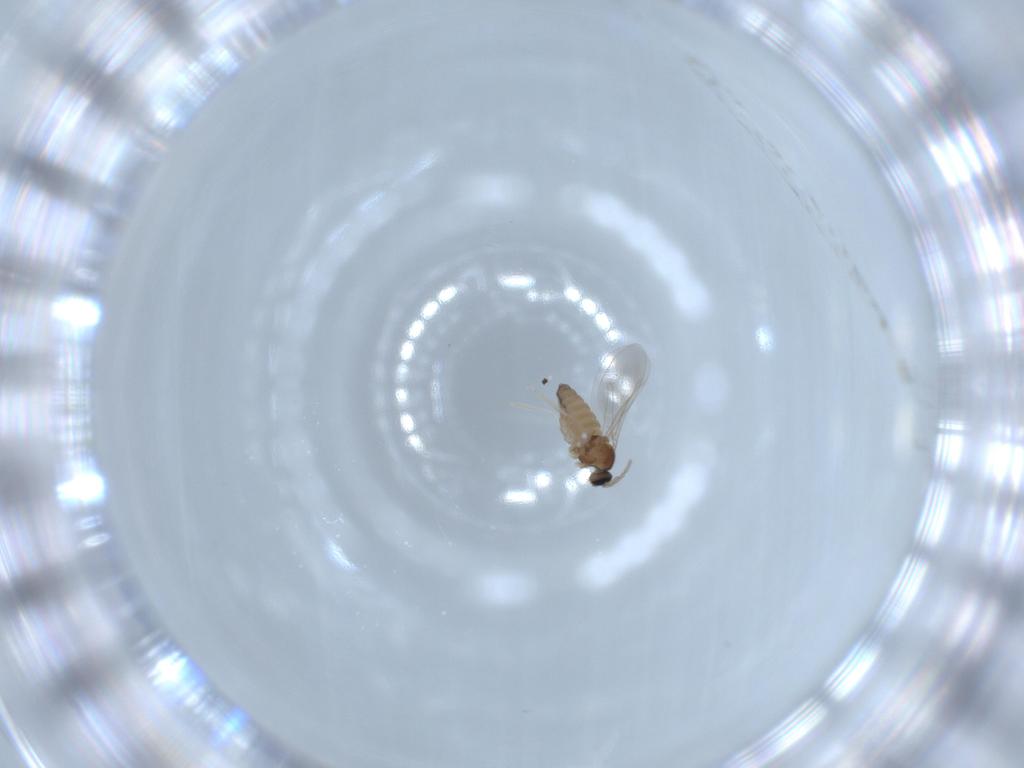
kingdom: Animalia
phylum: Arthropoda
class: Insecta
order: Diptera
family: Cecidomyiidae
